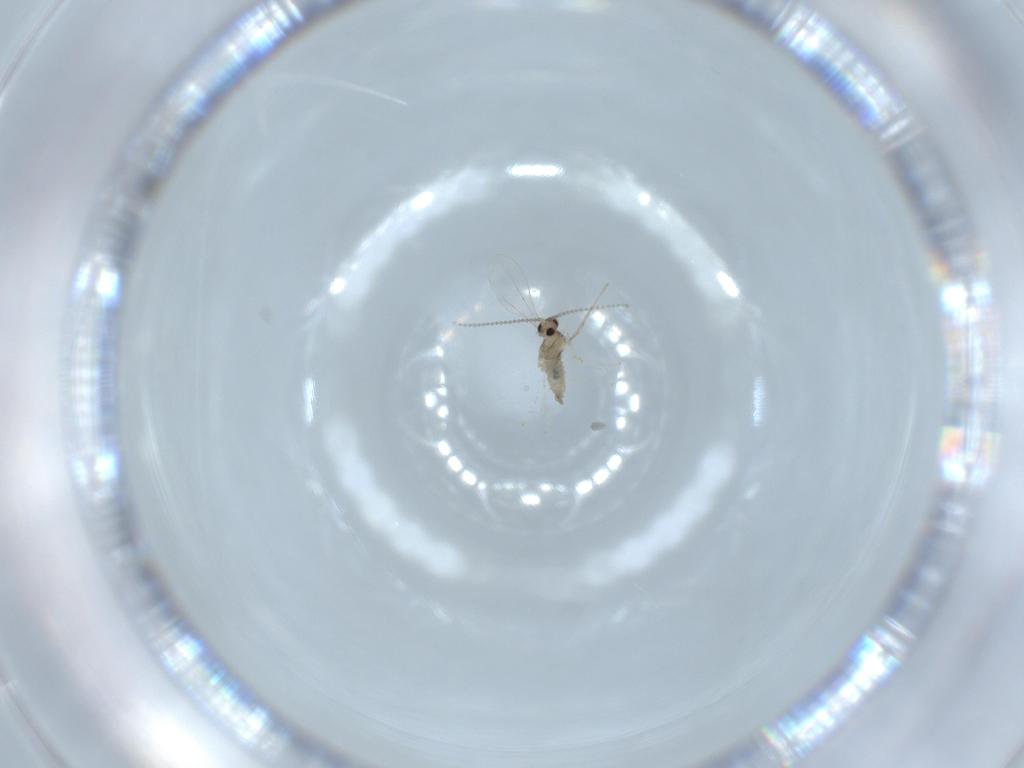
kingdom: Animalia
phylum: Arthropoda
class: Insecta
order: Diptera
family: Cecidomyiidae
